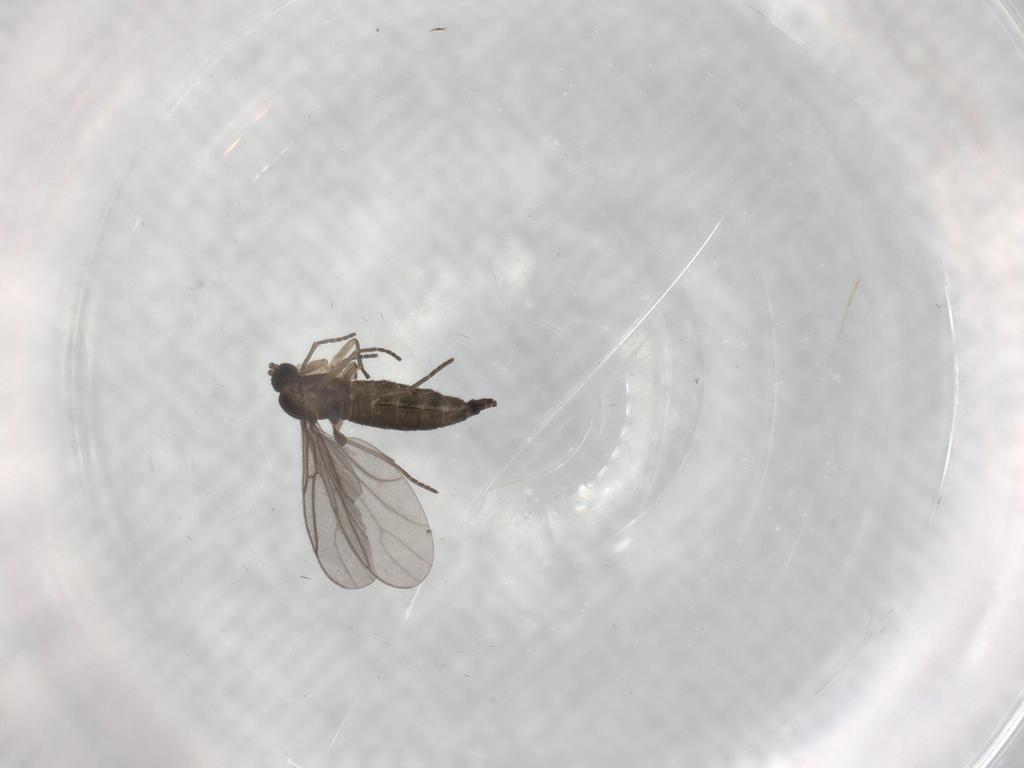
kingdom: Animalia
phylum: Arthropoda
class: Insecta
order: Diptera
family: Sciaridae
